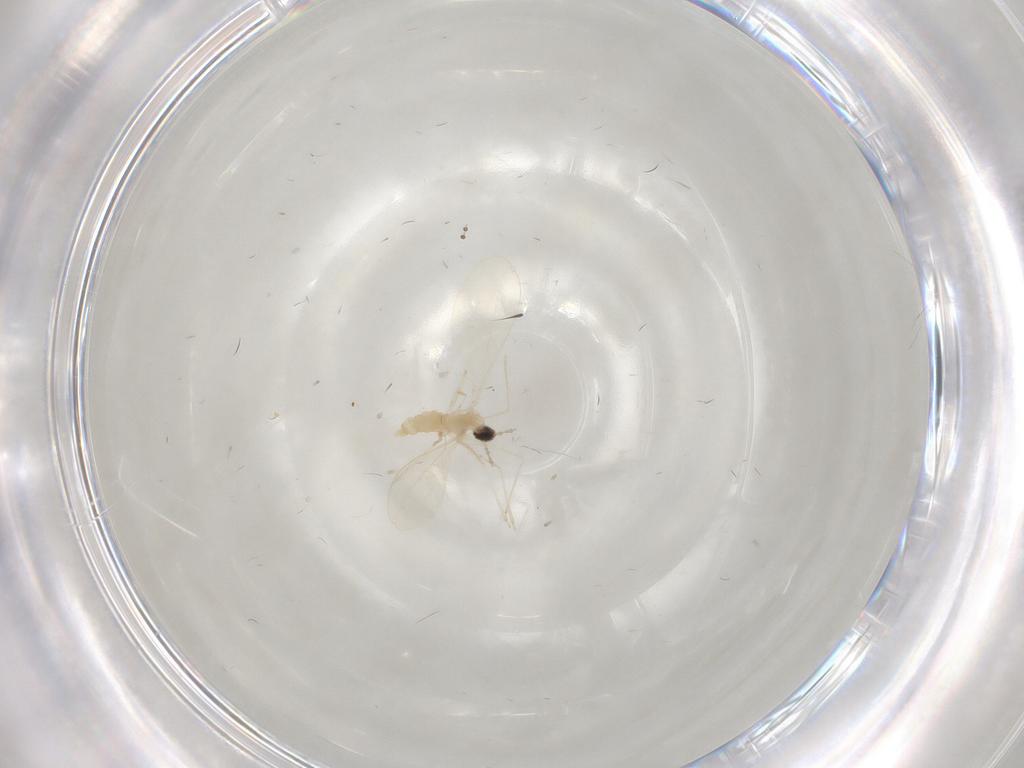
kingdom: Animalia
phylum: Arthropoda
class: Insecta
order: Diptera
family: Cecidomyiidae
